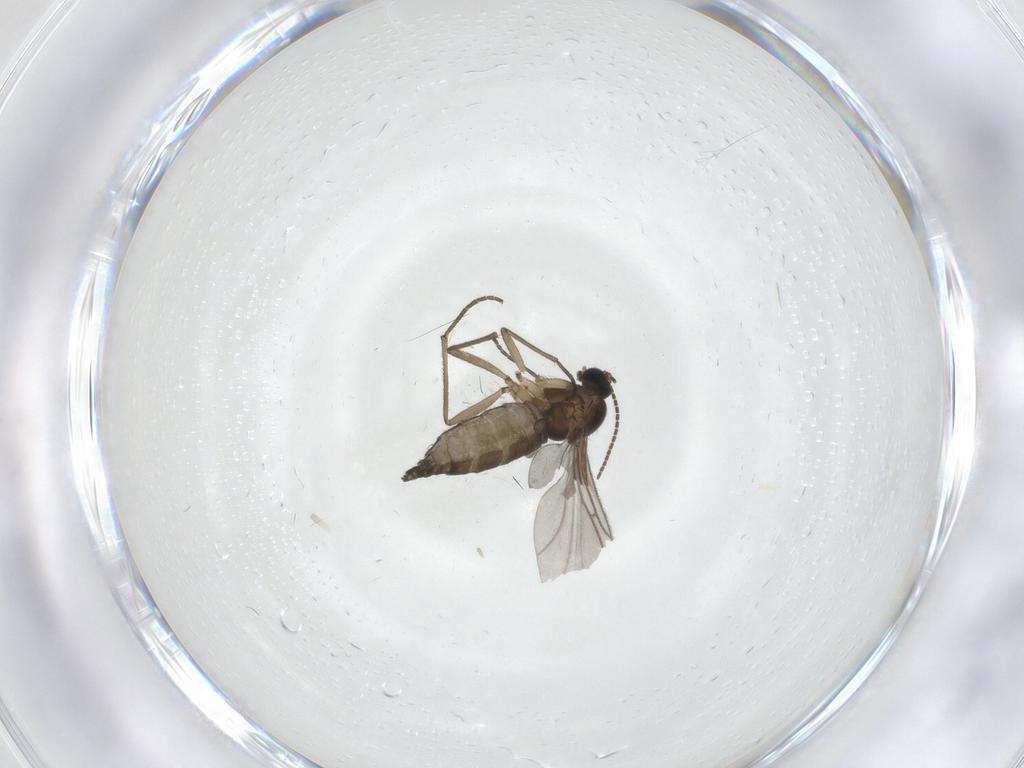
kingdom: Animalia
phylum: Arthropoda
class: Insecta
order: Diptera
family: Sciaridae
